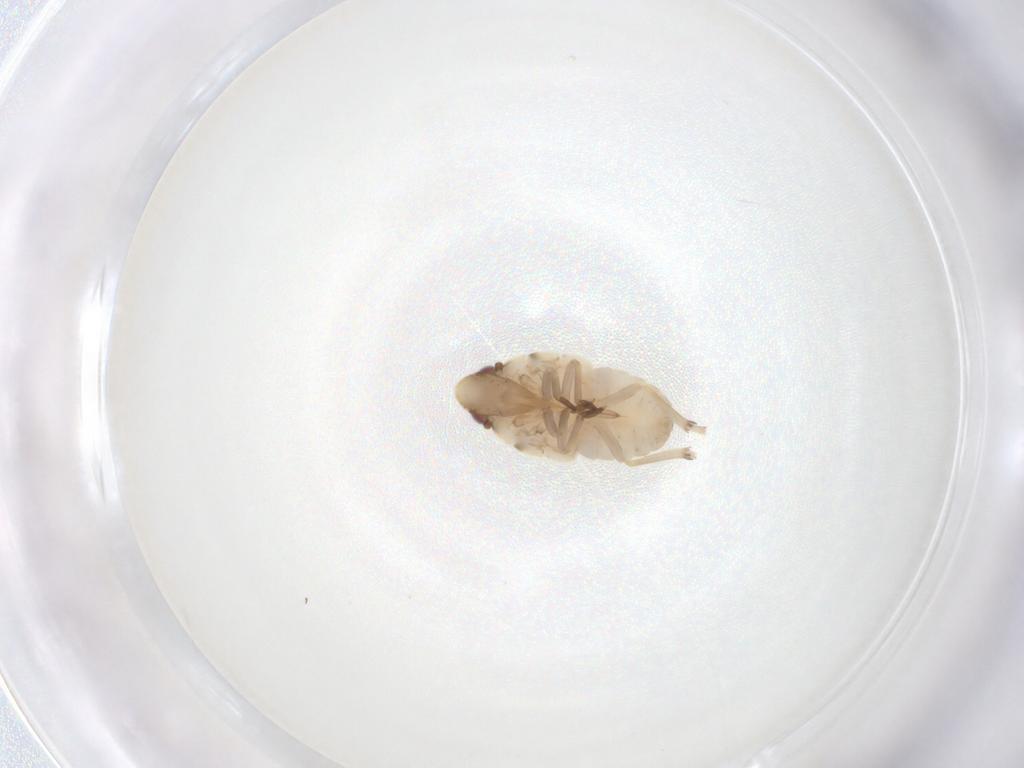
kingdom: Animalia
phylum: Arthropoda
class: Insecta
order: Hemiptera
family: Flatidae
